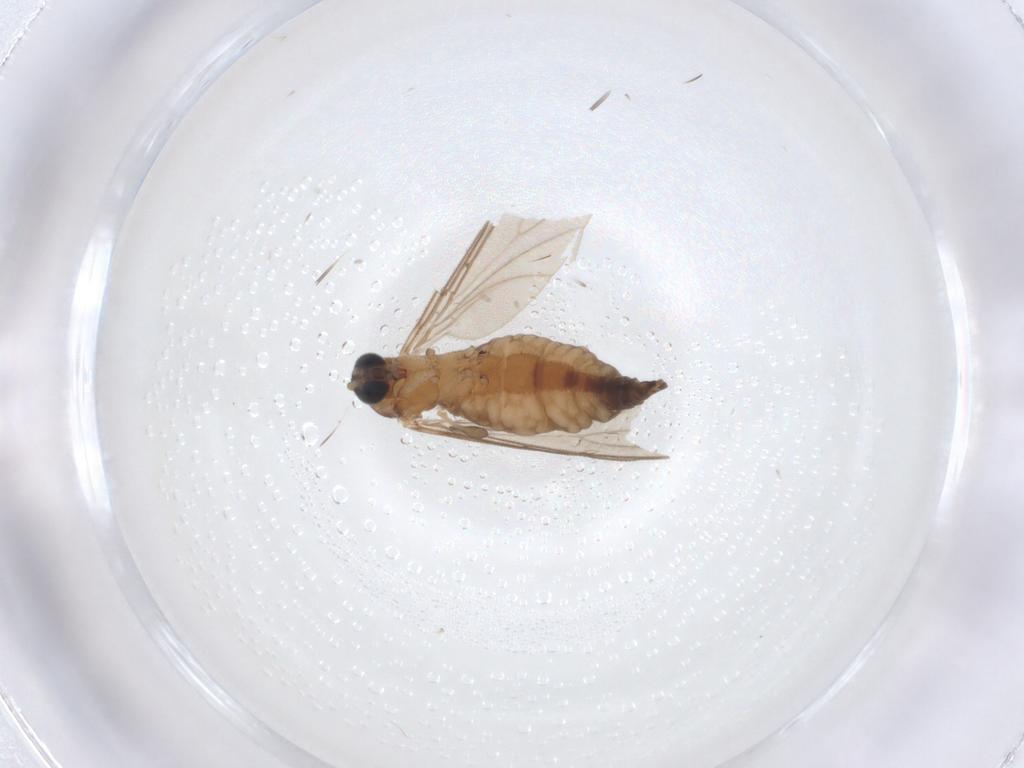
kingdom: Animalia
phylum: Arthropoda
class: Insecta
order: Diptera
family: Sciaridae
